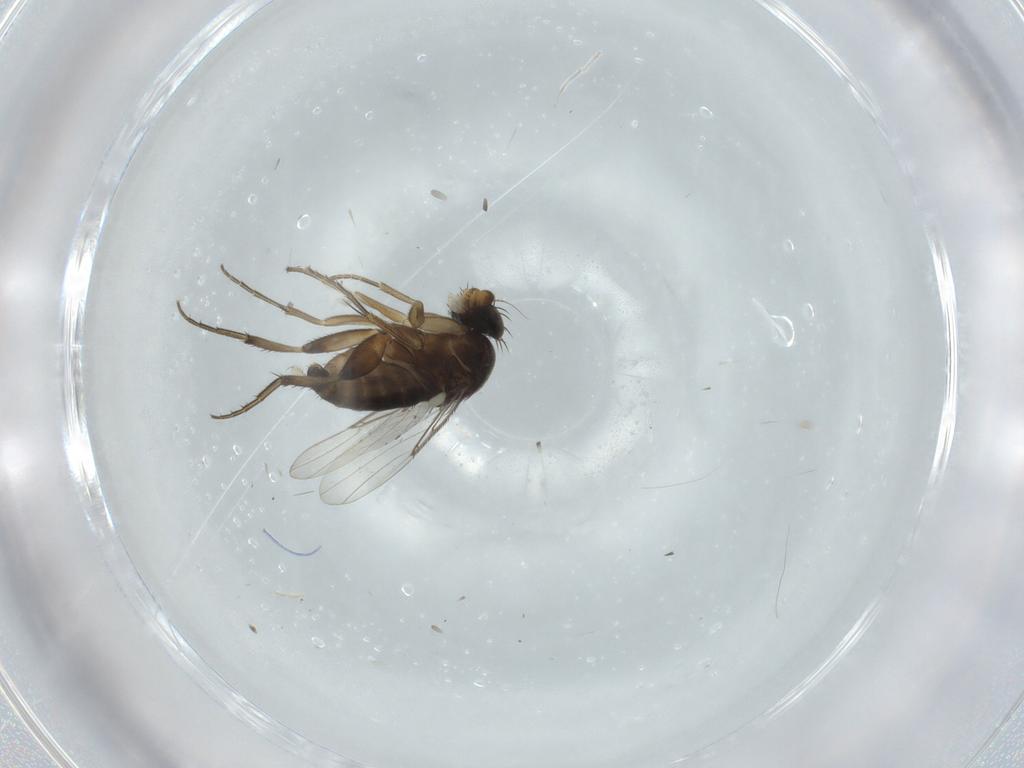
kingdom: Animalia
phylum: Arthropoda
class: Insecta
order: Diptera
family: Phoridae
